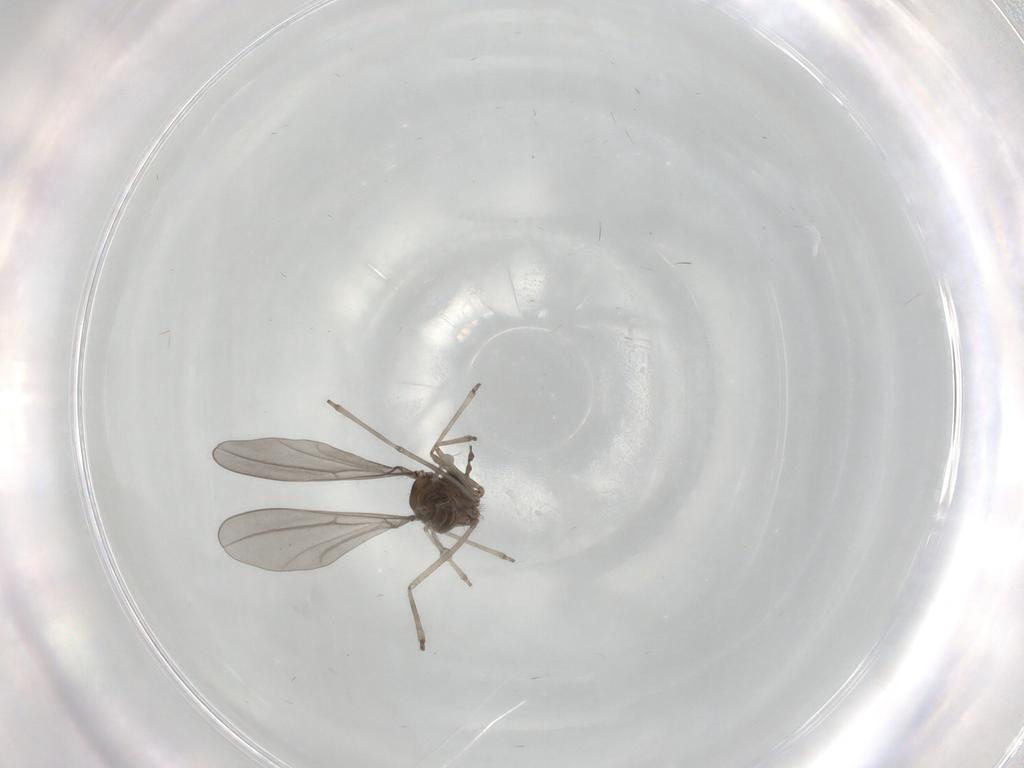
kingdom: Animalia
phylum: Arthropoda
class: Insecta
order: Diptera
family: Cecidomyiidae
